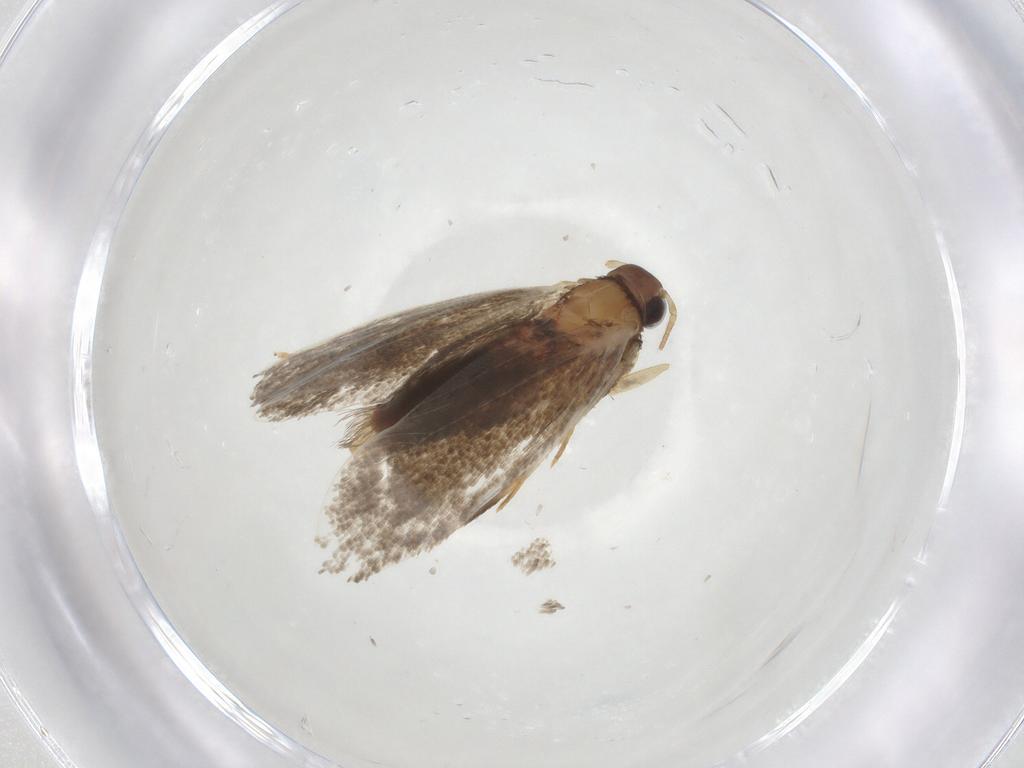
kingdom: Animalia
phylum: Arthropoda
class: Insecta
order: Lepidoptera
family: Oecophoridae
